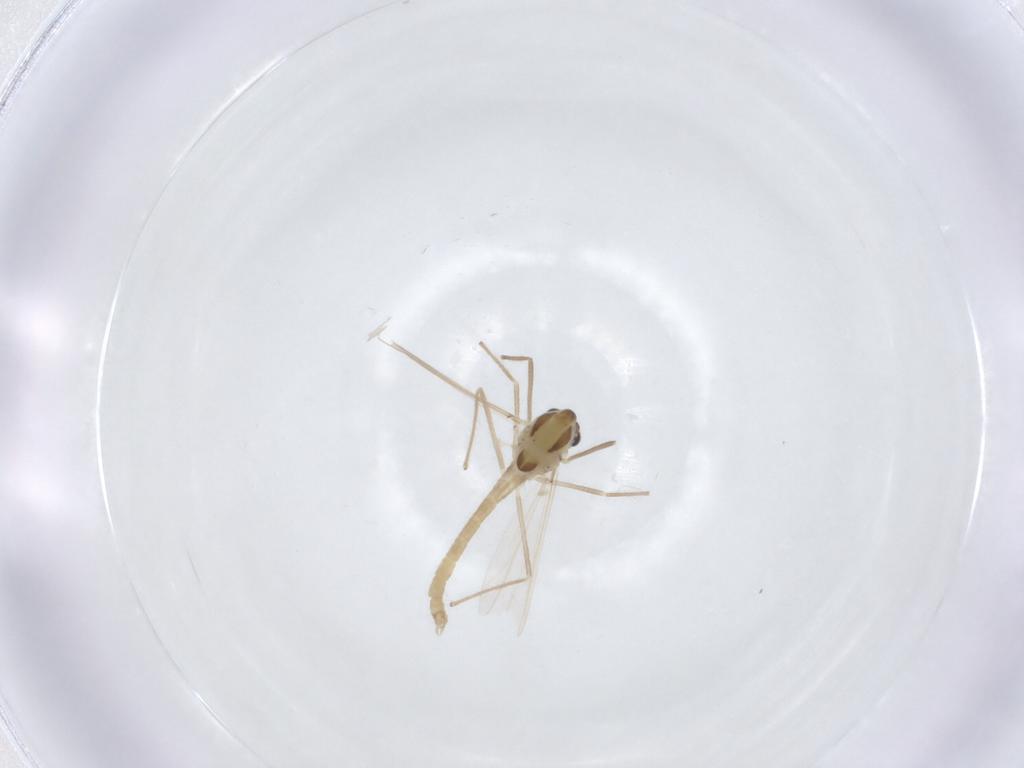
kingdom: Animalia
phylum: Arthropoda
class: Insecta
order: Diptera
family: Chironomidae
